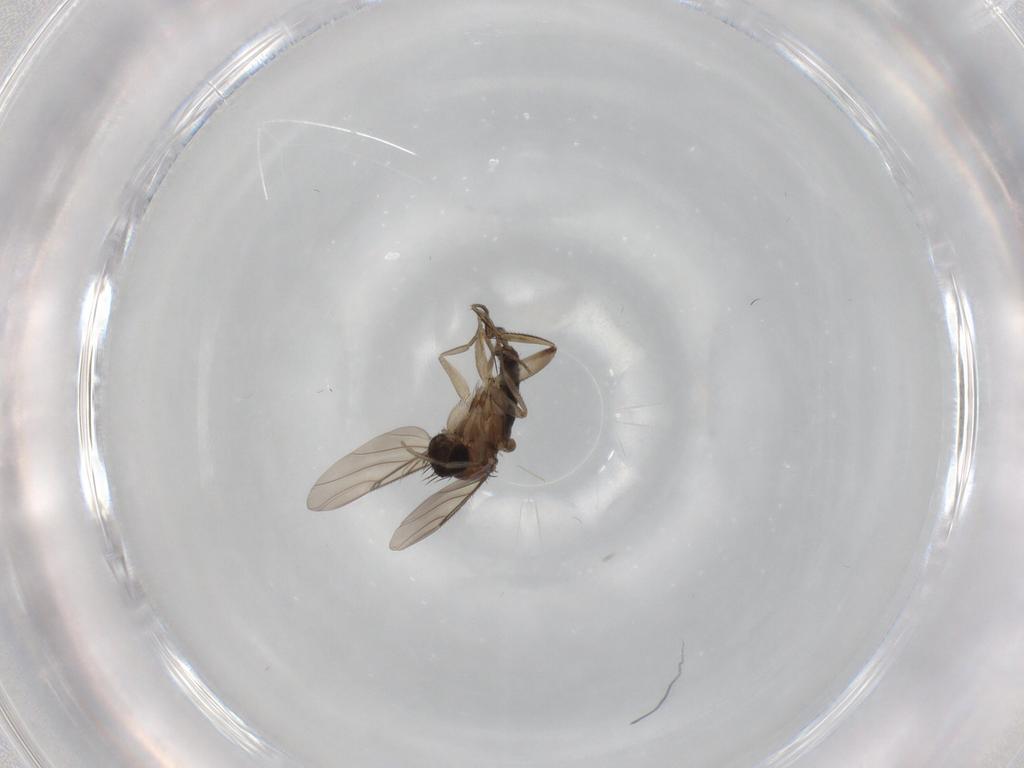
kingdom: Animalia
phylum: Arthropoda
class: Insecta
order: Diptera
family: Phoridae
